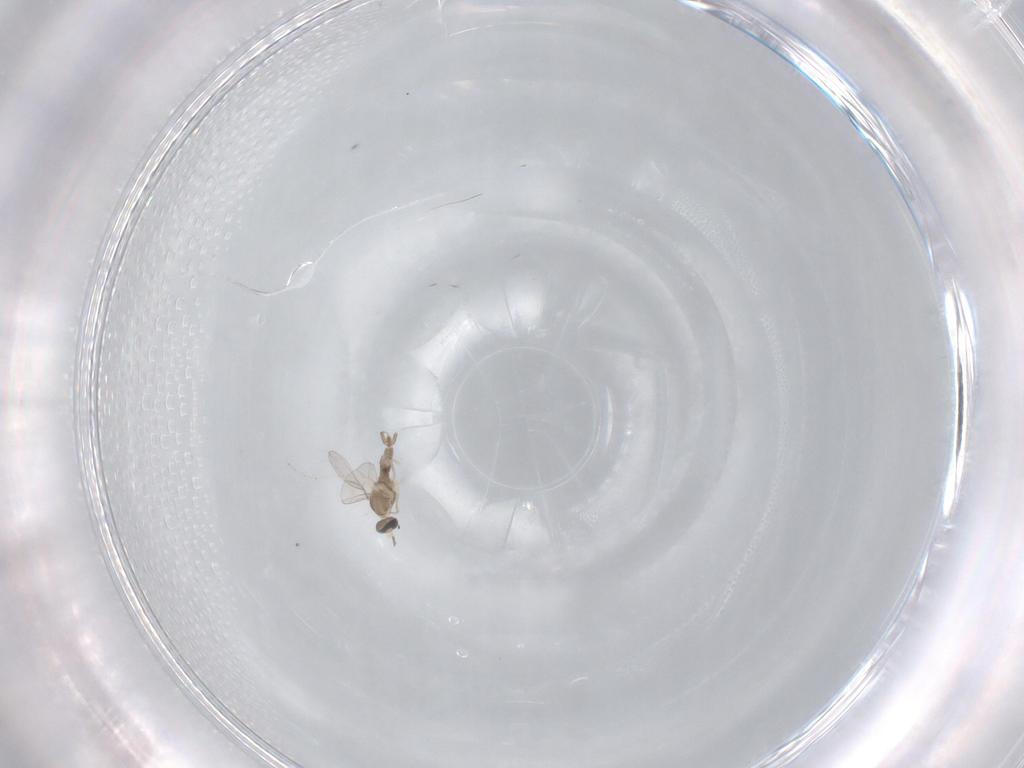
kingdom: Animalia
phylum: Arthropoda
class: Insecta
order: Diptera
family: Cecidomyiidae
